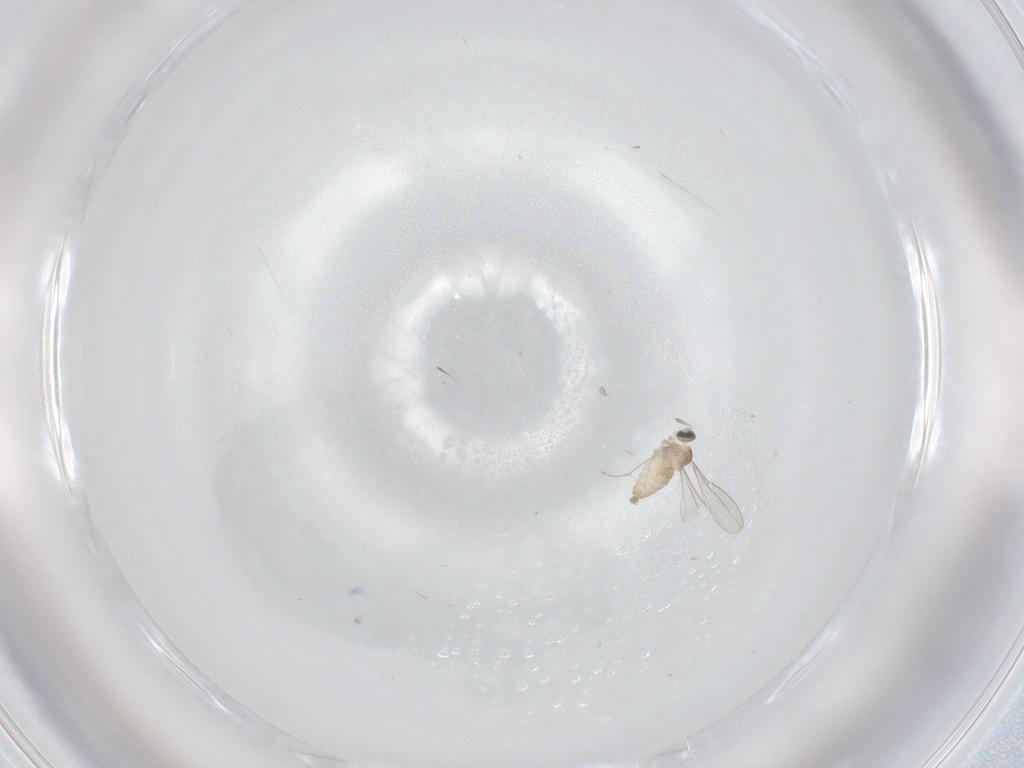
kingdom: Animalia
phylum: Arthropoda
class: Insecta
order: Diptera
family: Cecidomyiidae
